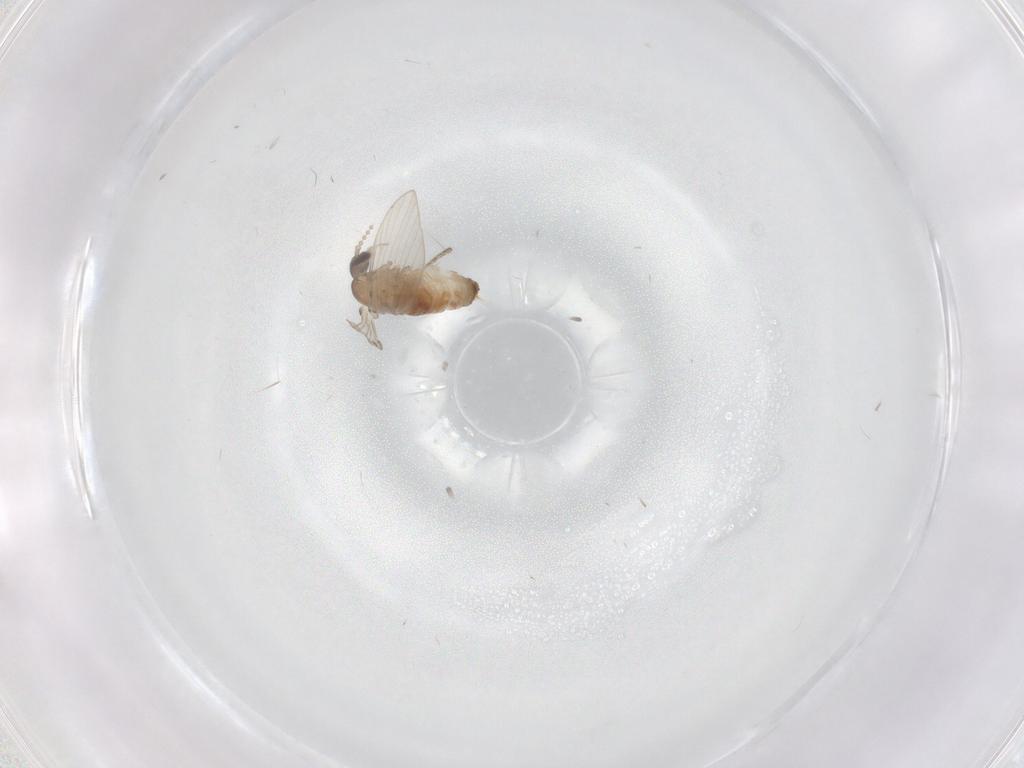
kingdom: Animalia
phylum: Arthropoda
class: Insecta
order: Diptera
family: Psychodidae
